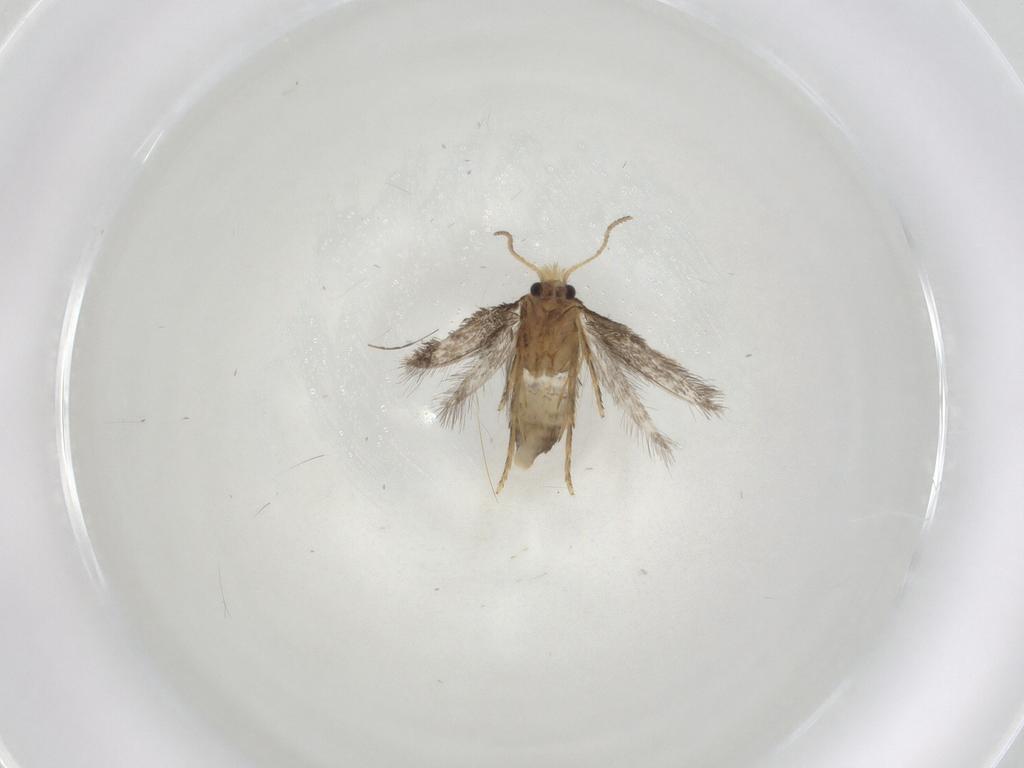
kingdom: Animalia
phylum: Arthropoda
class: Insecta
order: Lepidoptera
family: Nepticulidae
